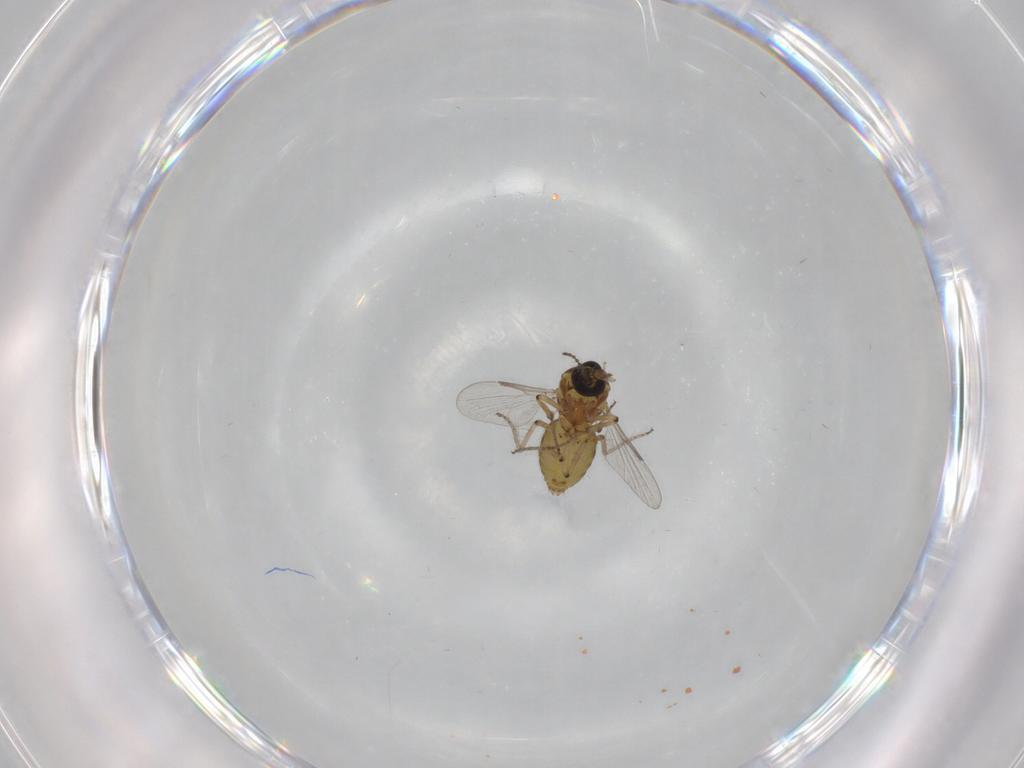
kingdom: Animalia
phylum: Arthropoda
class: Insecta
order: Diptera
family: Ceratopogonidae
